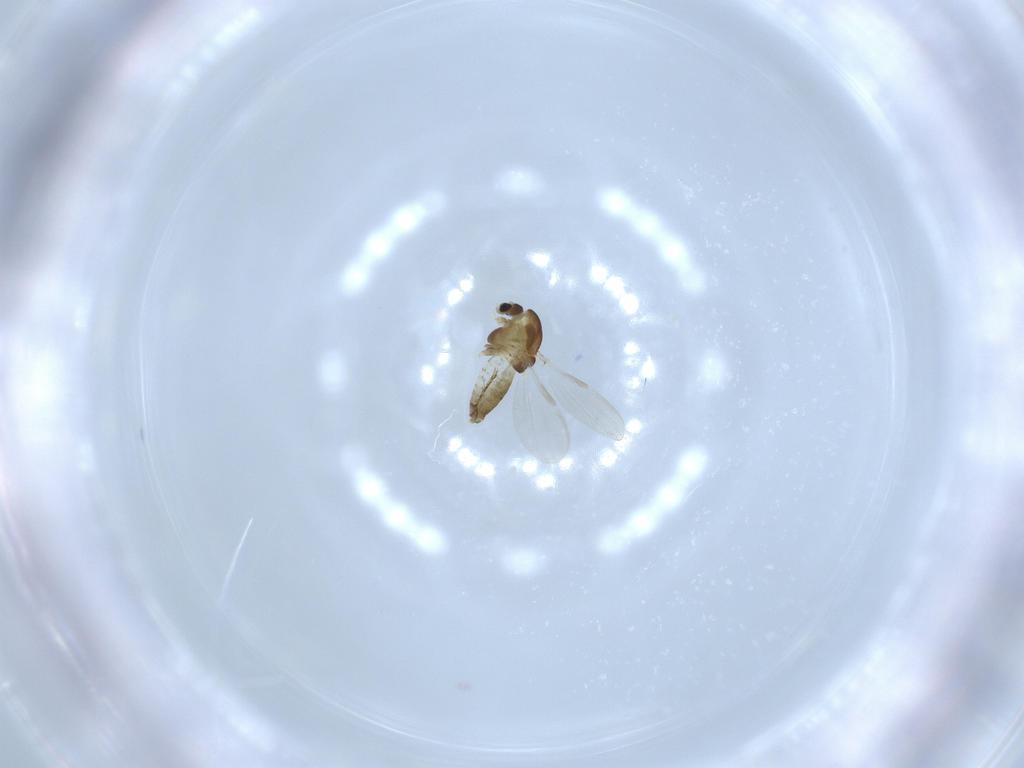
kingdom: Animalia
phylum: Arthropoda
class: Insecta
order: Diptera
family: Chironomidae
